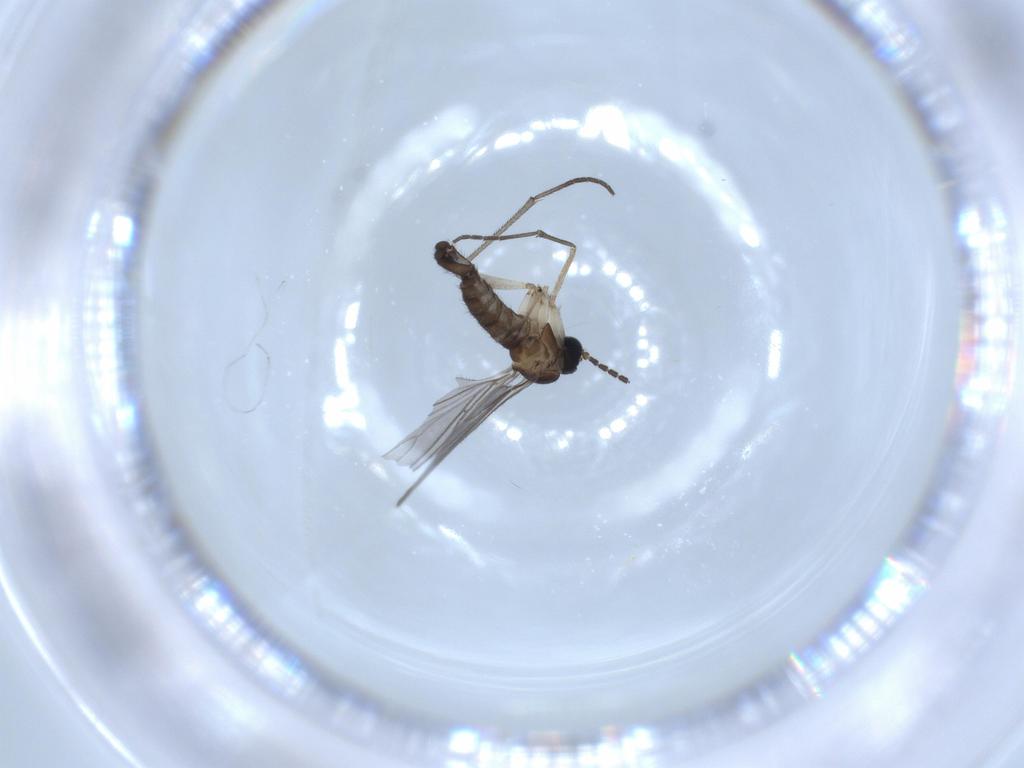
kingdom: Animalia
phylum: Arthropoda
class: Insecta
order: Diptera
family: Sciaridae
